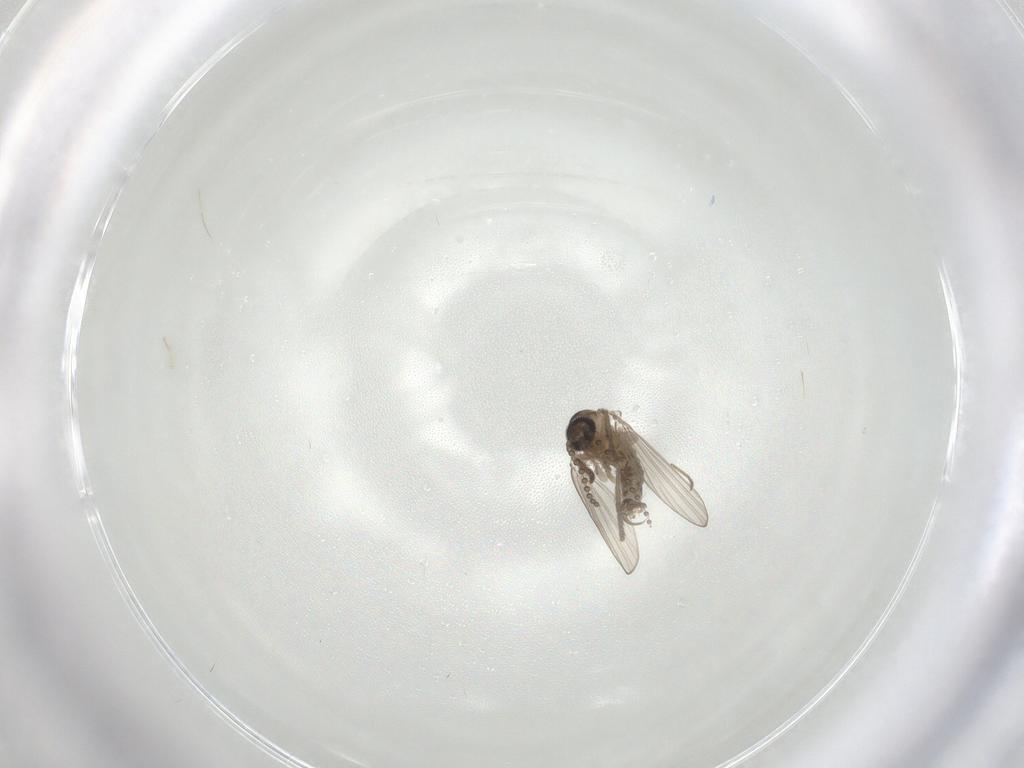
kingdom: Animalia
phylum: Arthropoda
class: Insecta
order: Diptera
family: Psychodidae
